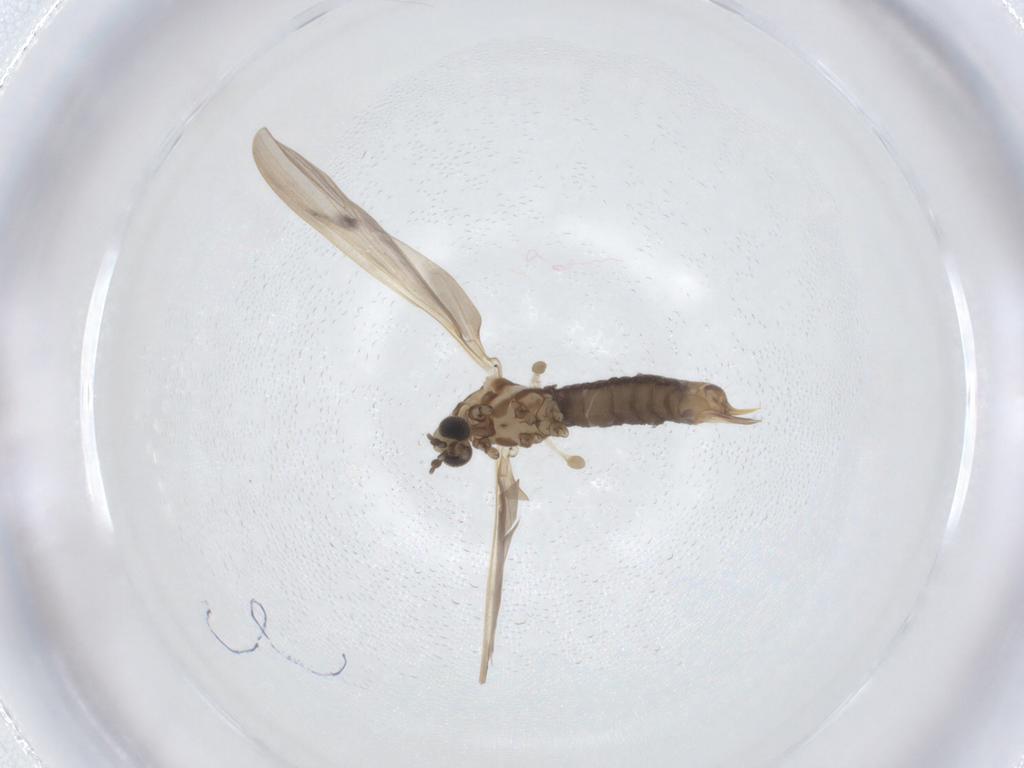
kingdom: Animalia
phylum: Arthropoda
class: Insecta
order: Diptera
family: Limoniidae
